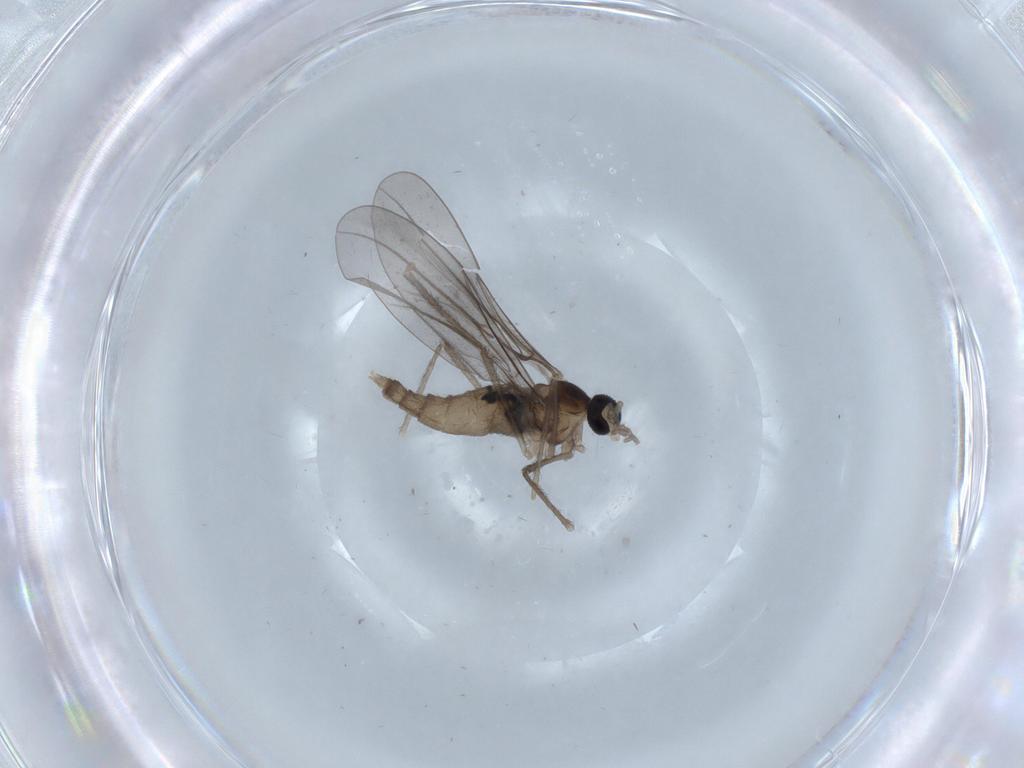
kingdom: Animalia
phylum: Arthropoda
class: Insecta
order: Diptera
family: Cecidomyiidae
